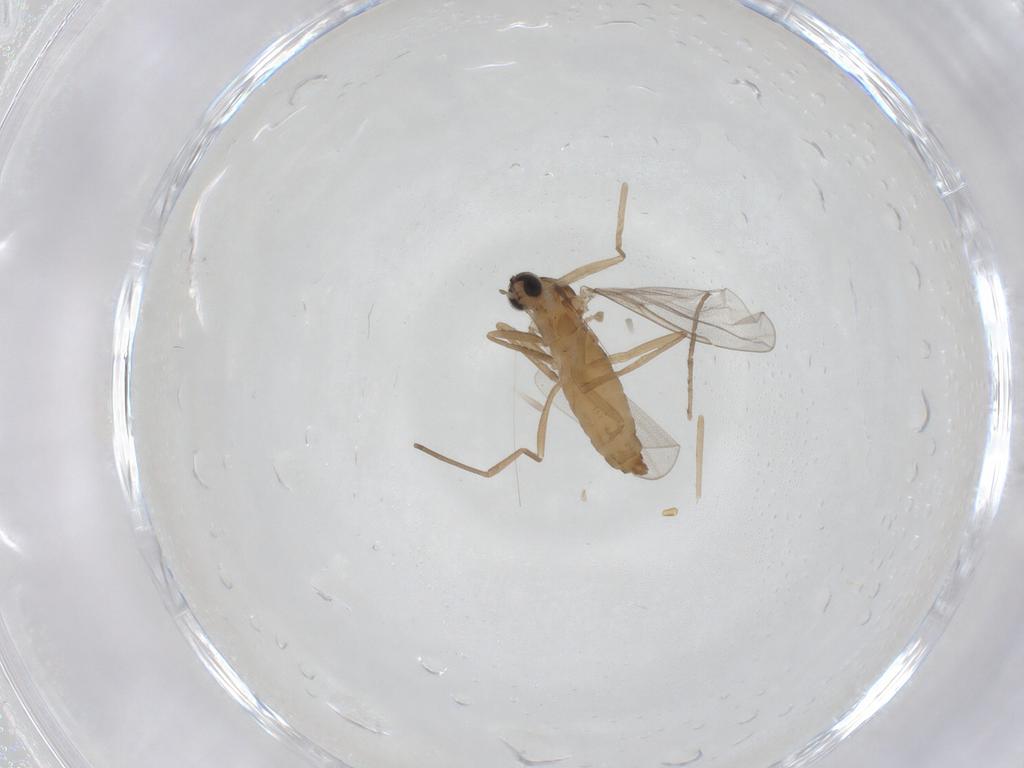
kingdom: Animalia
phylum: Arthropoda
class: Insecta
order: Diptera
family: Cecidomyiidae
